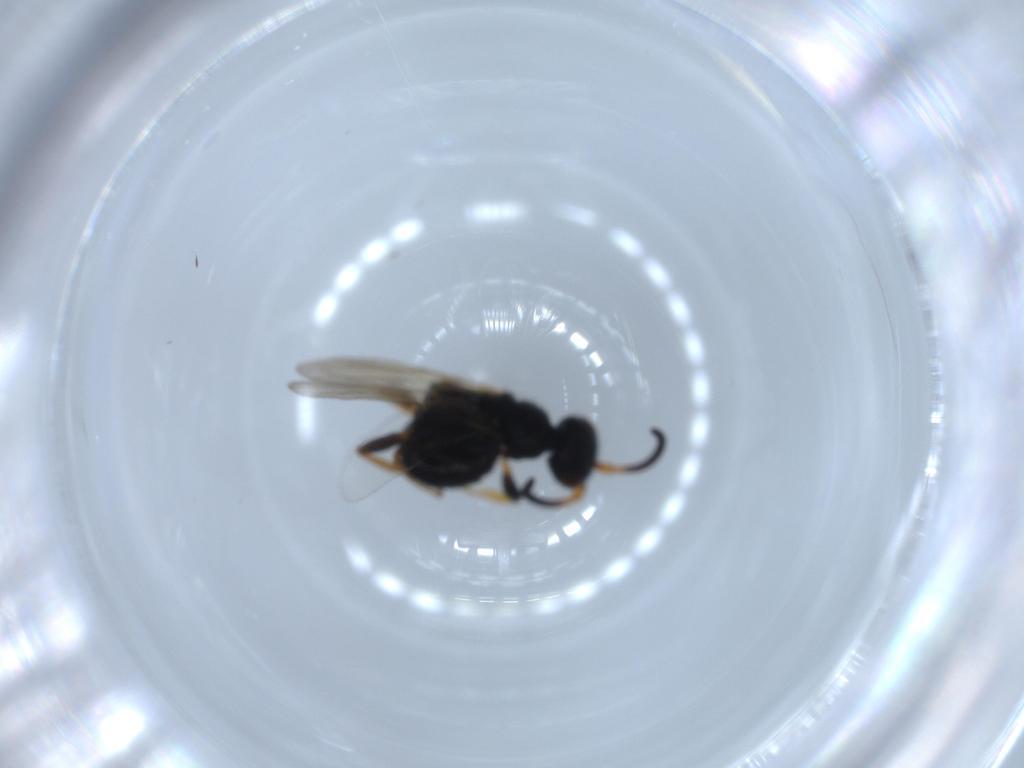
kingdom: Animalia
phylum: Arthropoda
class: Insecta
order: Hymenoptera
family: Bethylidae
